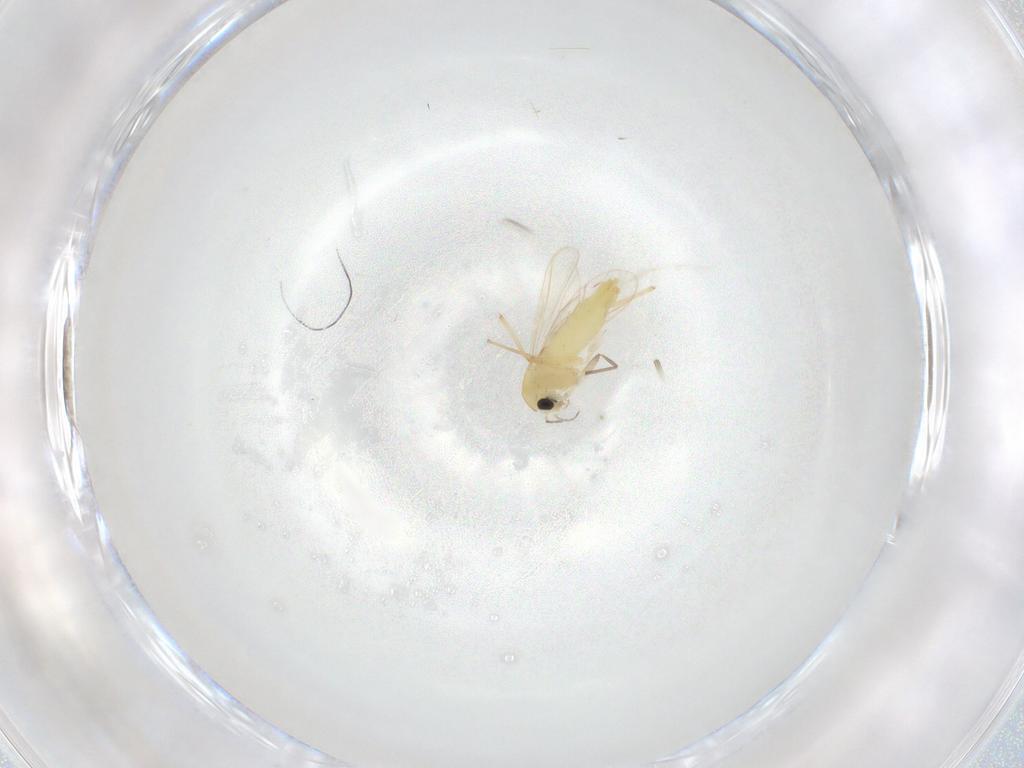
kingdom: Animalia
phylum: Arthropoda
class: Insecta
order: Diptera
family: Chironomidae
